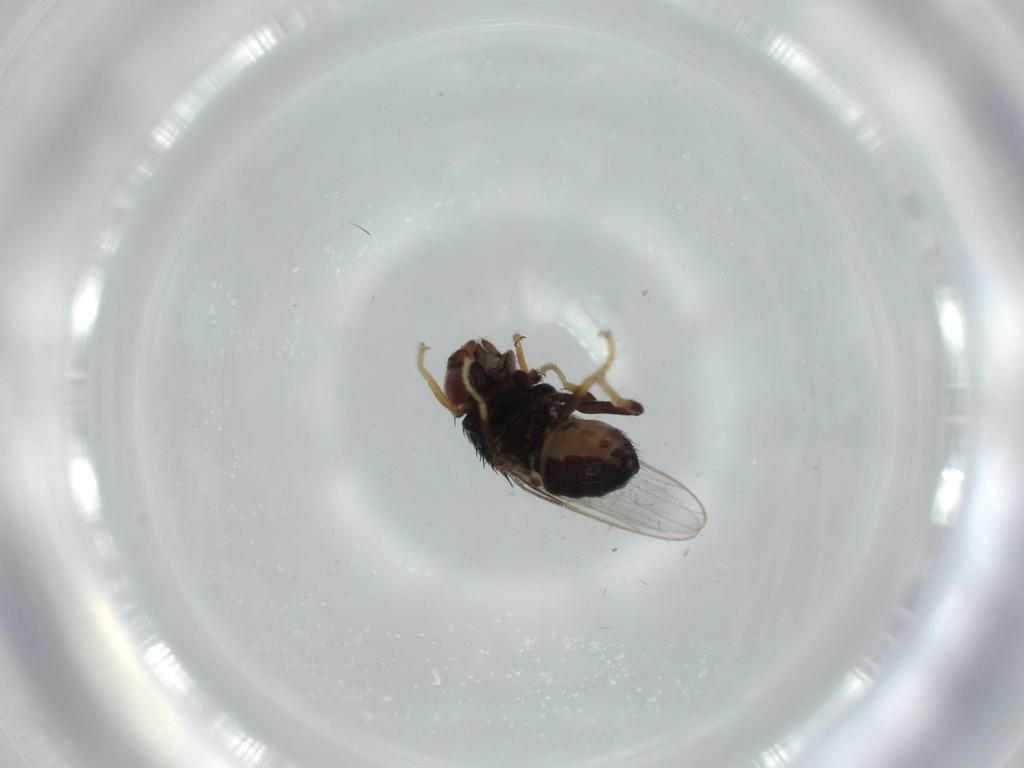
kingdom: Animalia
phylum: Arthropoda
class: Insecta
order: Diptera
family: Chloropidae
